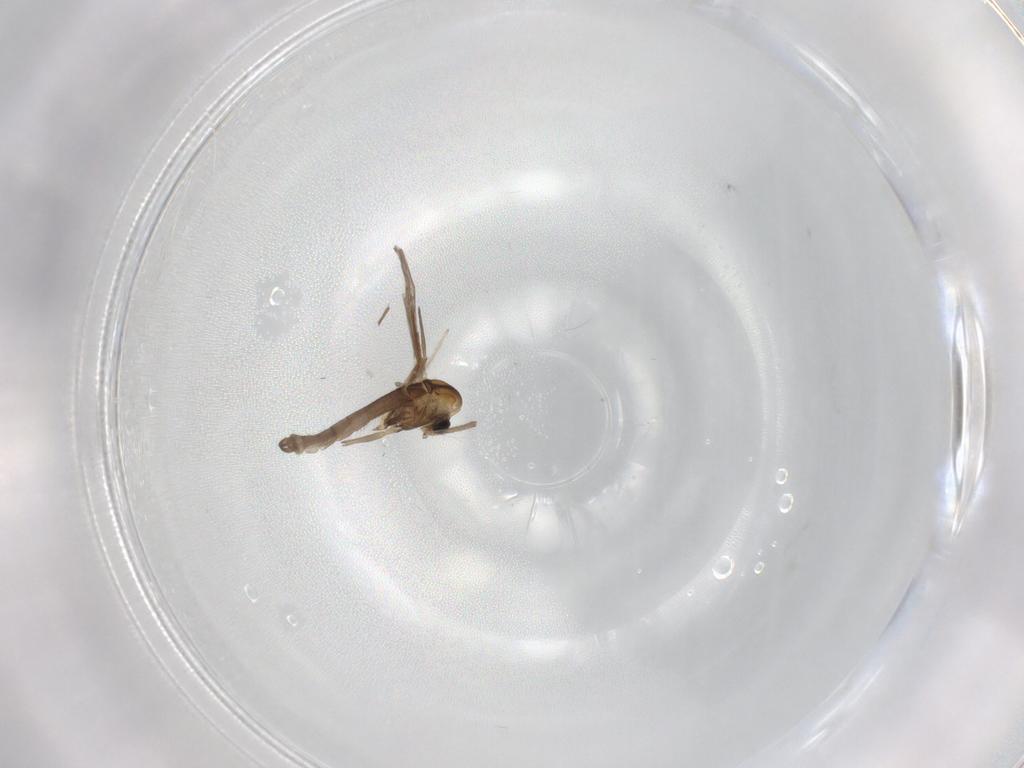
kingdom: Animalia
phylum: Arthropoda
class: Insecta
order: Diptera
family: Chironomidae
